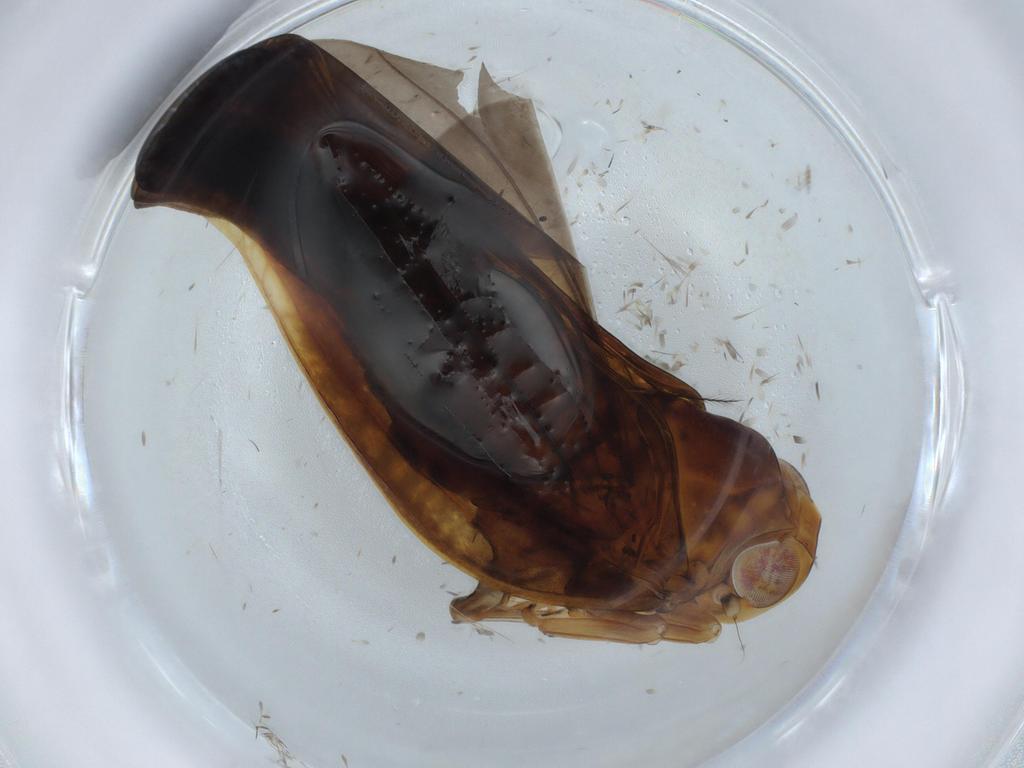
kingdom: Animalia
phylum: Arthropoda
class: Insecta
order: Hemiptera
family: Nogodinidae
